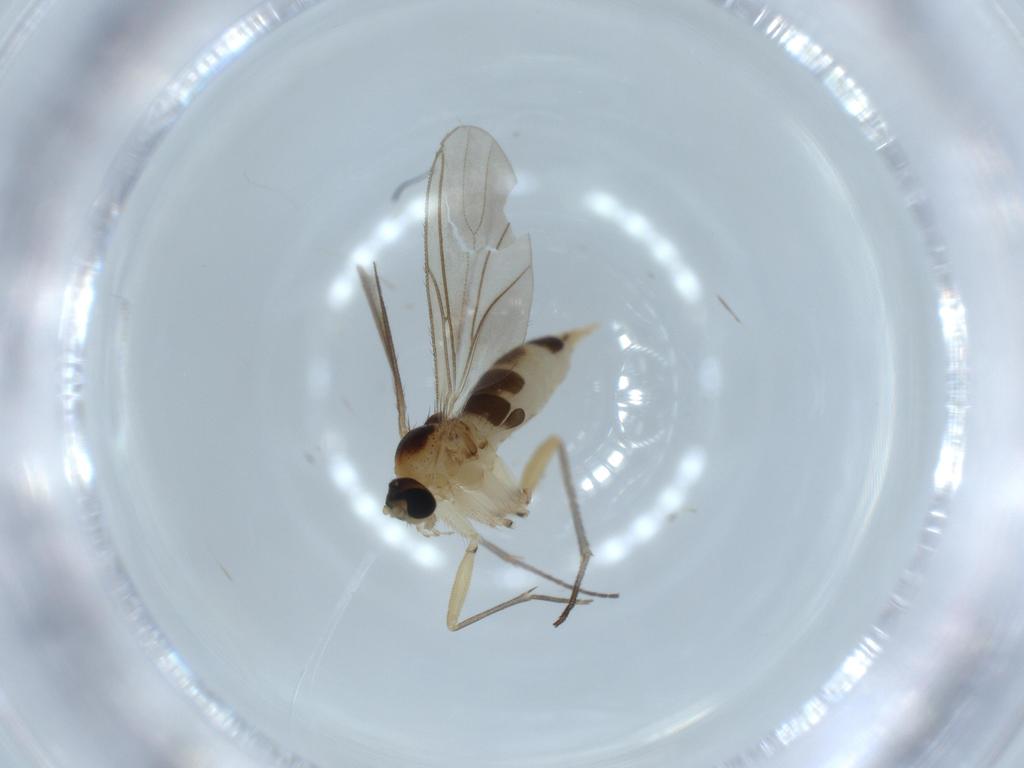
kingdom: Animalia
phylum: Arthropoda
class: Insecta
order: Diptera
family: Sciaridae
